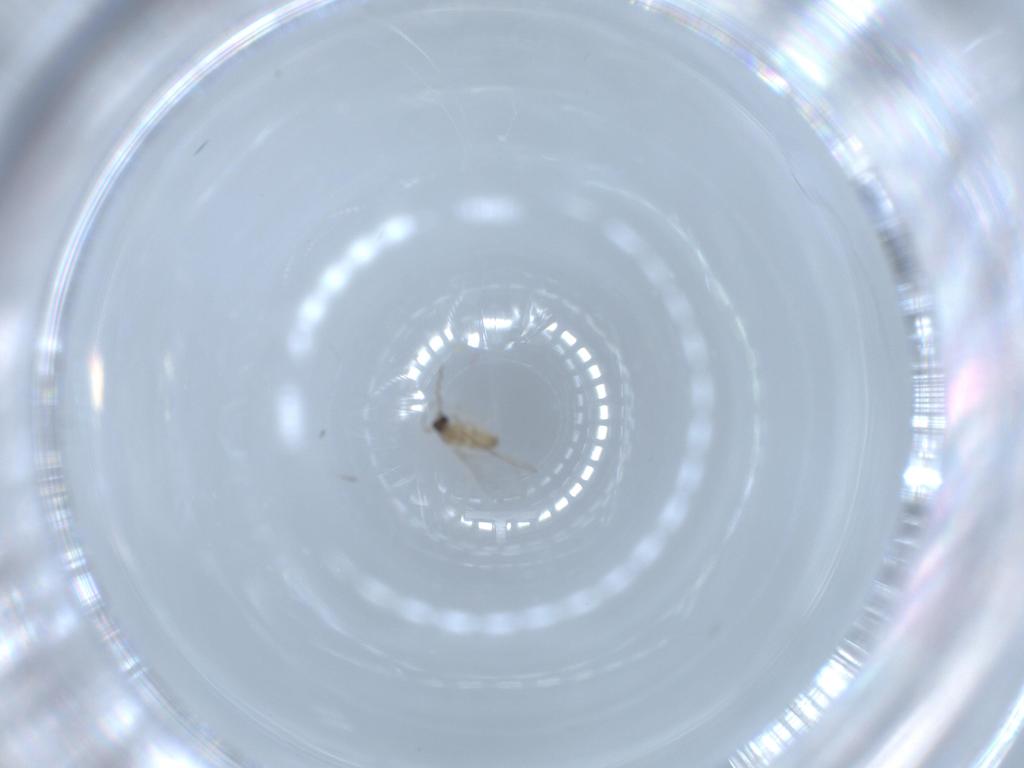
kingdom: Animalia
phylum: Arthropoda
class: Insecta
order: Diptera
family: Cecidomyiidae
